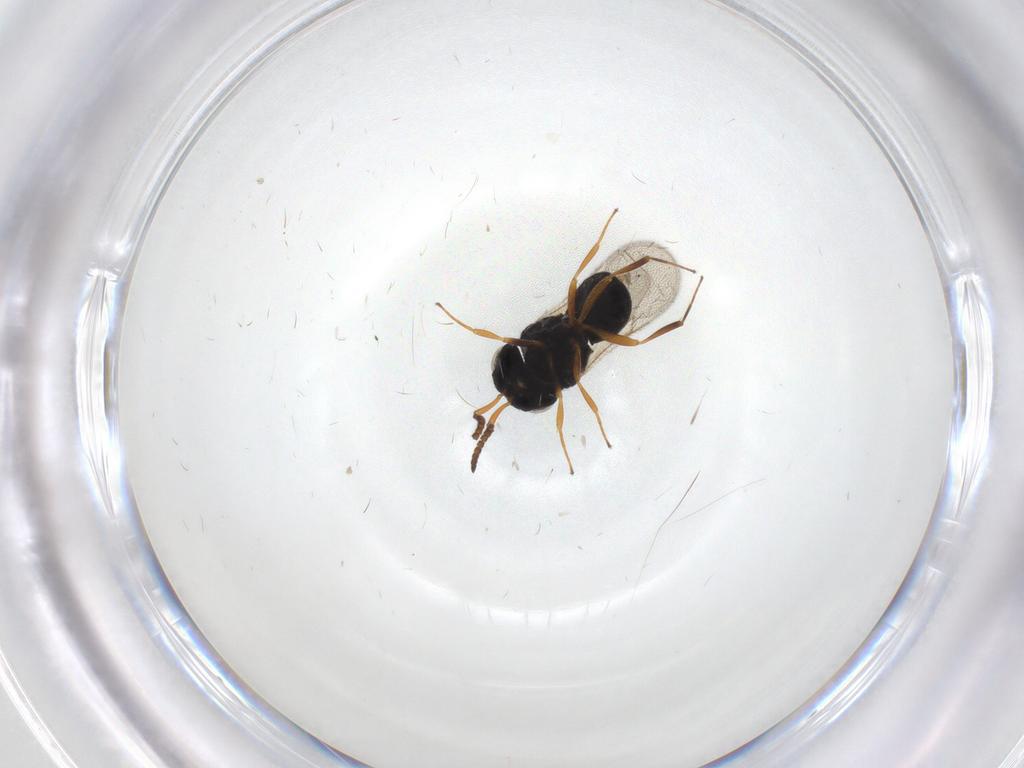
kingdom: Animalia
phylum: Arthropoda
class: Insecta
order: Hymenoptera
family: Scelionidae
